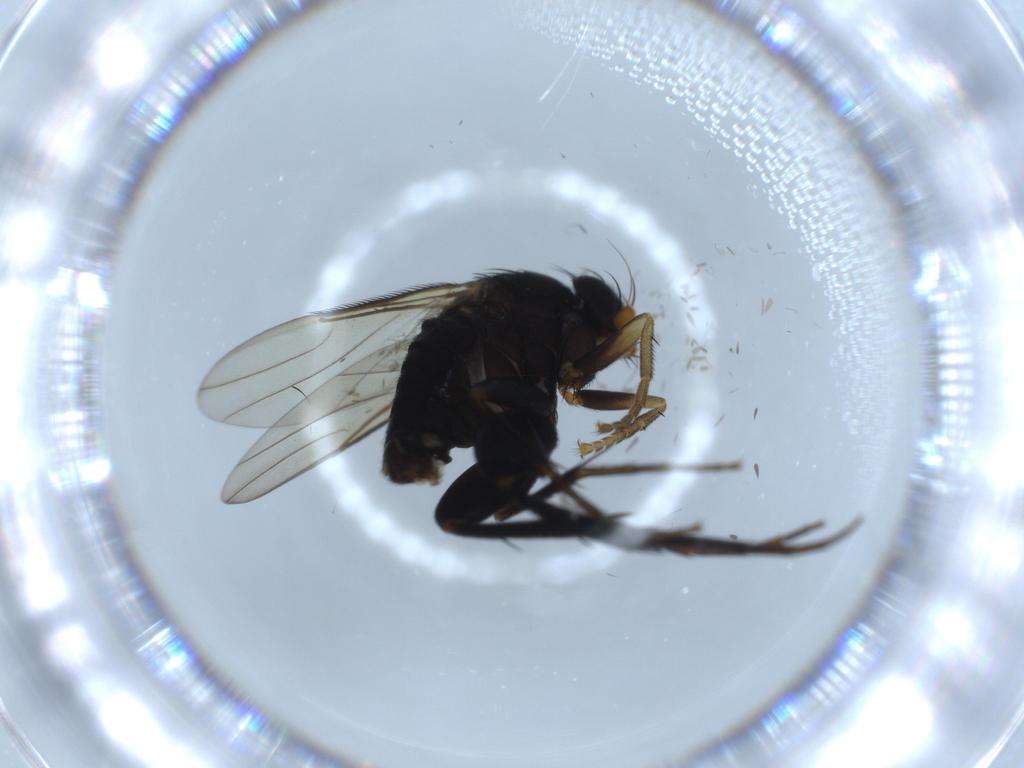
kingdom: Animalia
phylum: Arthropoda
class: Insecta
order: Diptera
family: Phoridae
